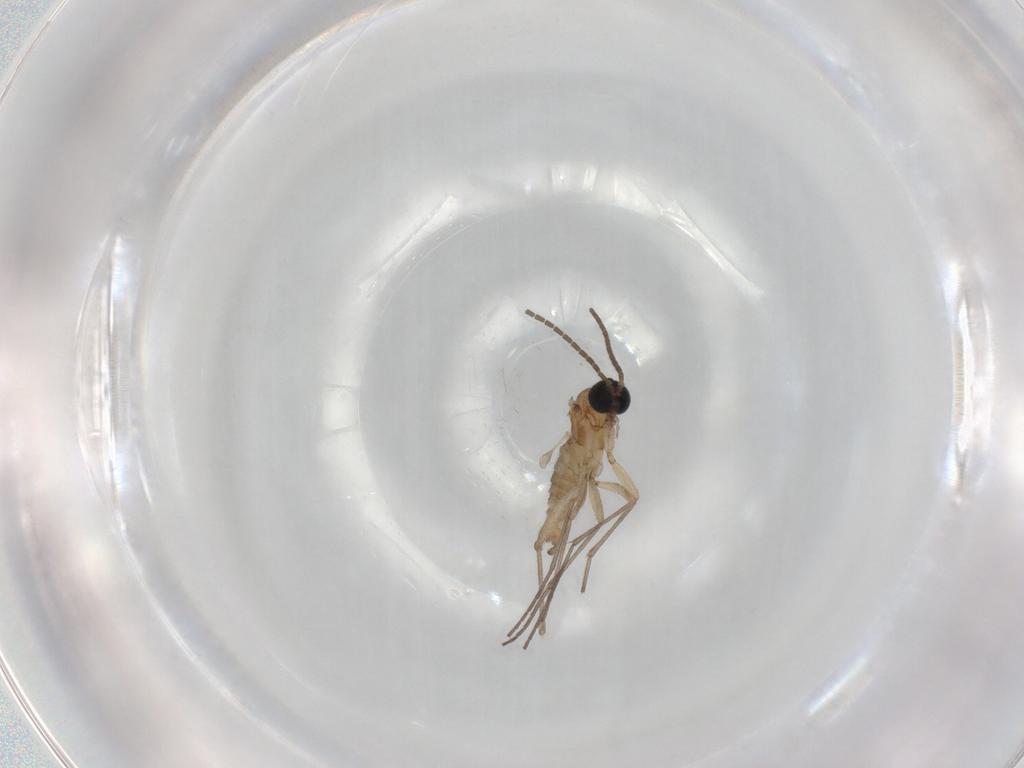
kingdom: Animalia
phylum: Arthropoda
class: Insecta
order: Diptera
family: Sciaridae
